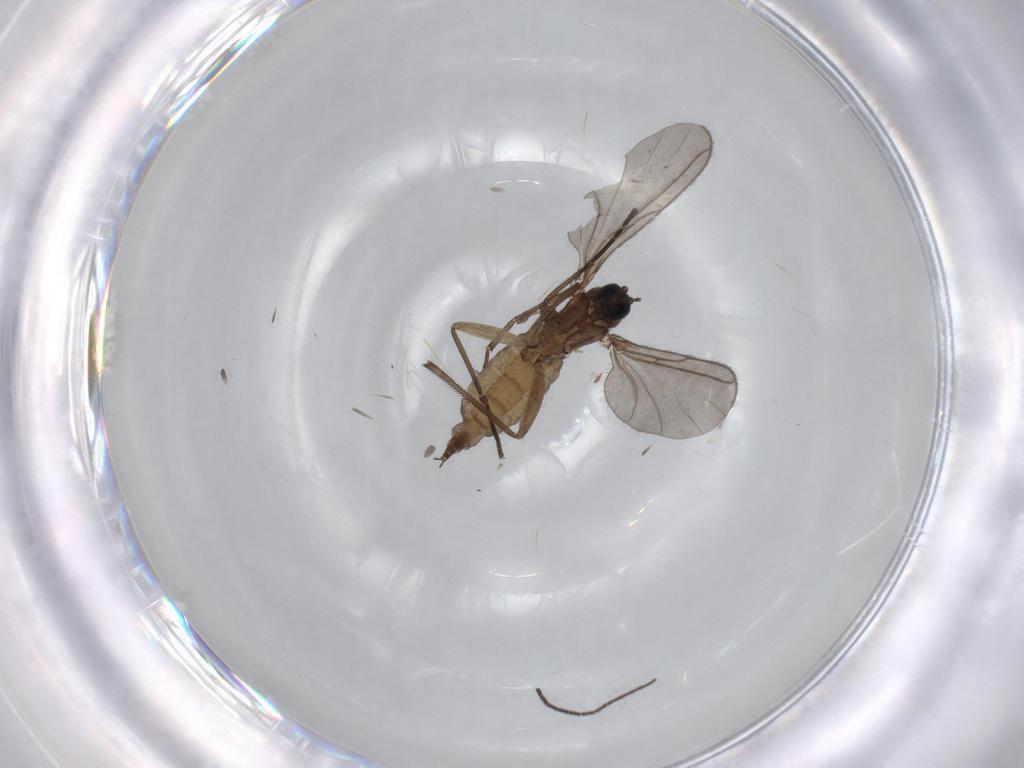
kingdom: Animalia
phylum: Arthropoda
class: Insecta
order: Diptera
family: Sciaridae
